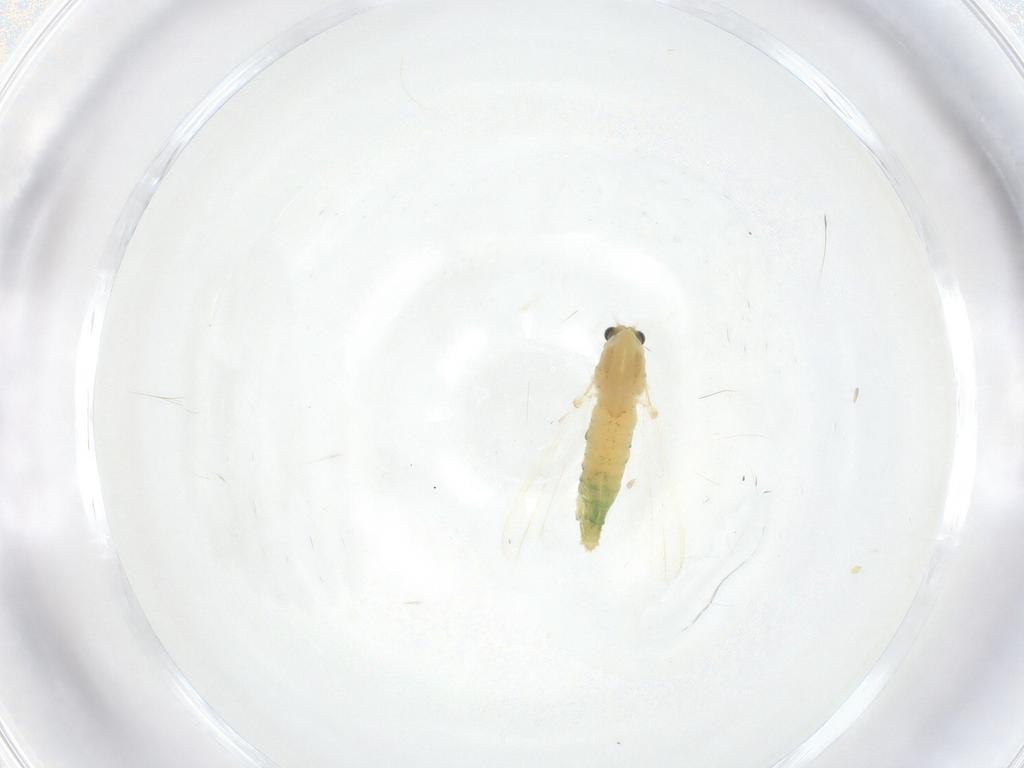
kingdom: Animalia
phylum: Arthropoda
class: Insecta
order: Diptera
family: Chironomidae
